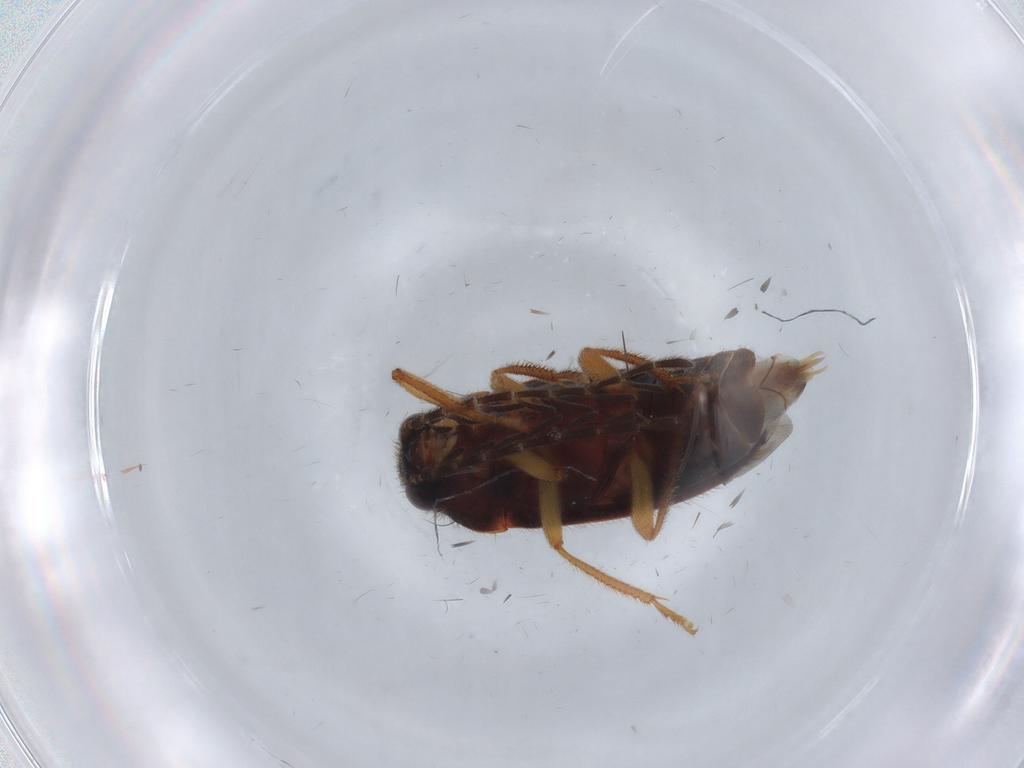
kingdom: Animalia
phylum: Arthropoda
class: Insecta
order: Coleoptera
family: Ptilodactylidae
